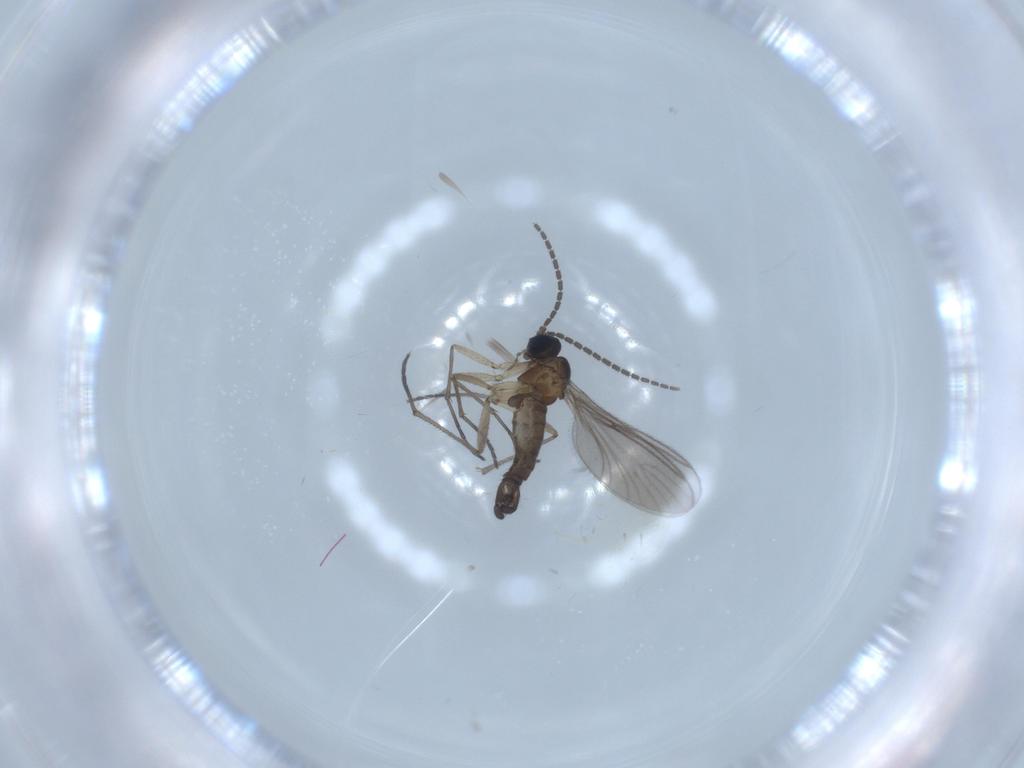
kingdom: Animalia
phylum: Arthropoda
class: Insecta
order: Diptera
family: Sciaridae
